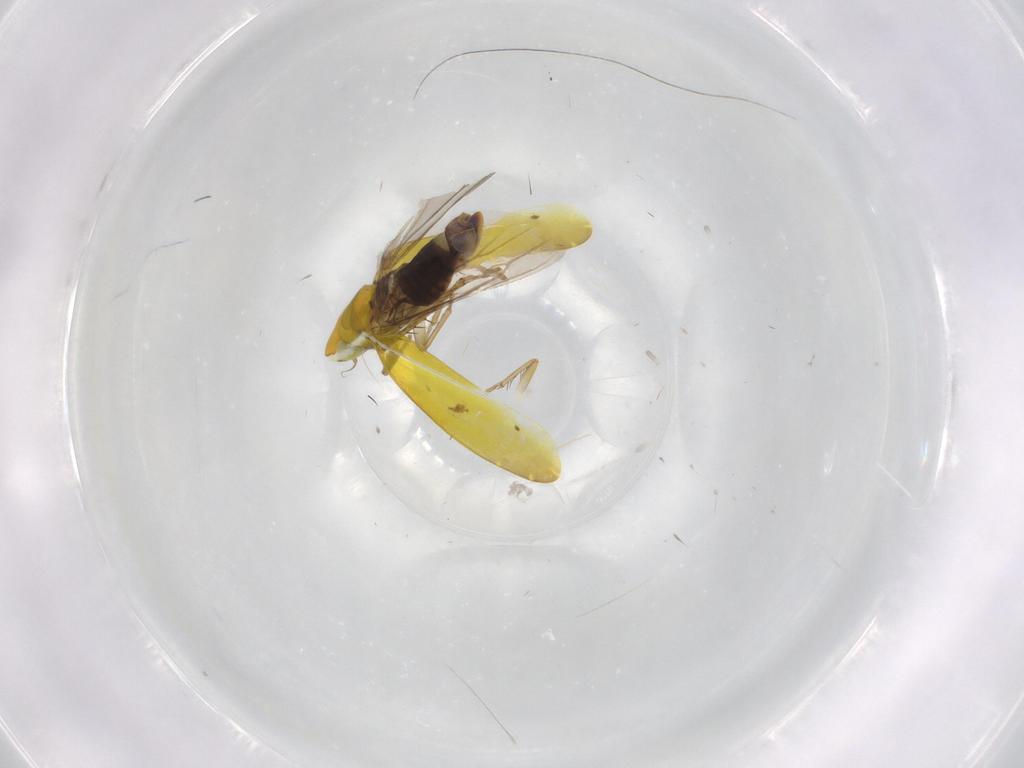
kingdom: Animalia
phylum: Arthropoda
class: Insecta
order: Hemiptera
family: Cicadellidae
